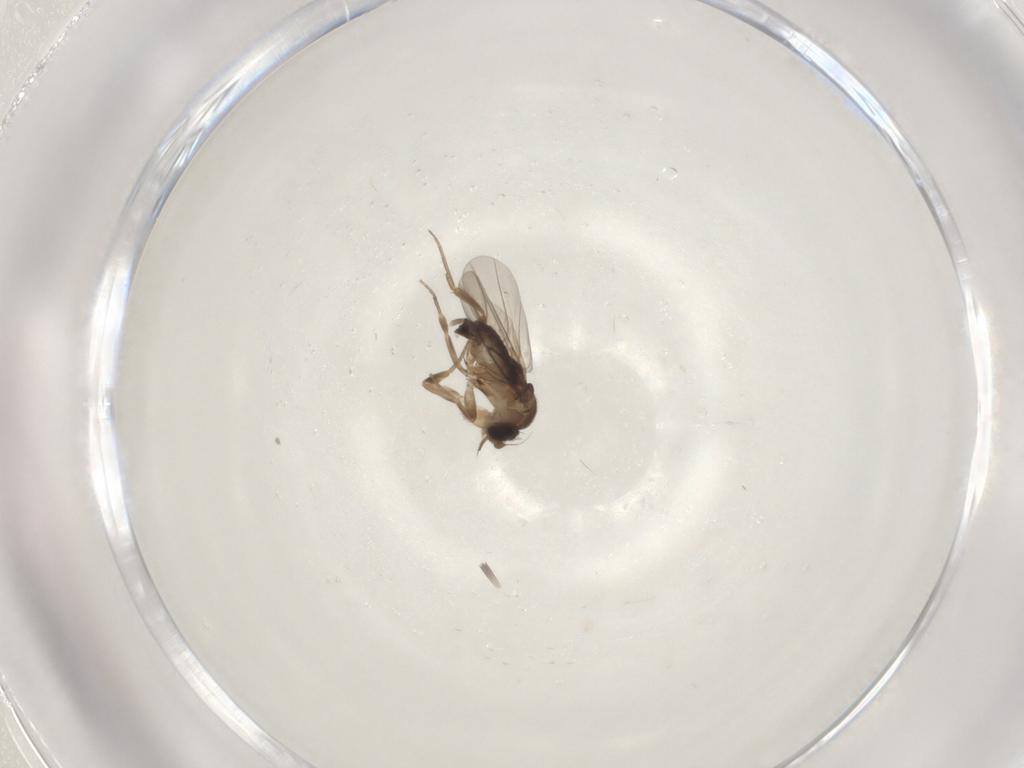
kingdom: Animalia
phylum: Arthropoda
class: Insecta
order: Diptera
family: Phoridae
